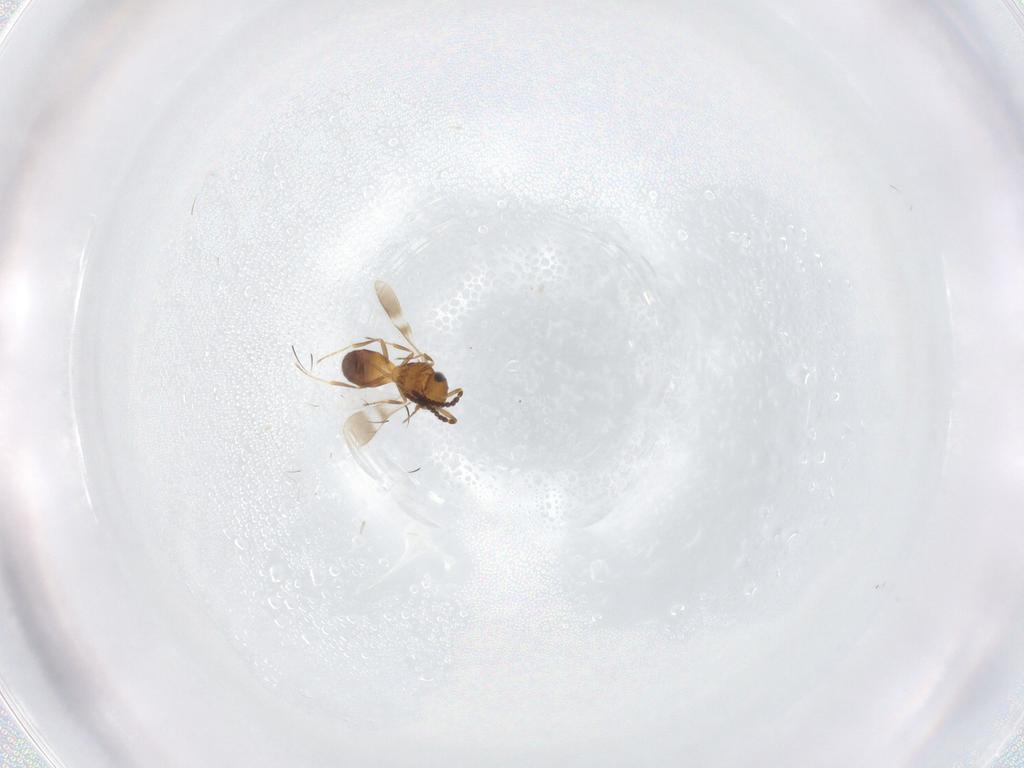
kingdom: Animalia
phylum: Arthropoda
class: Insecta
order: Hymenoptera
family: Scelionidae
